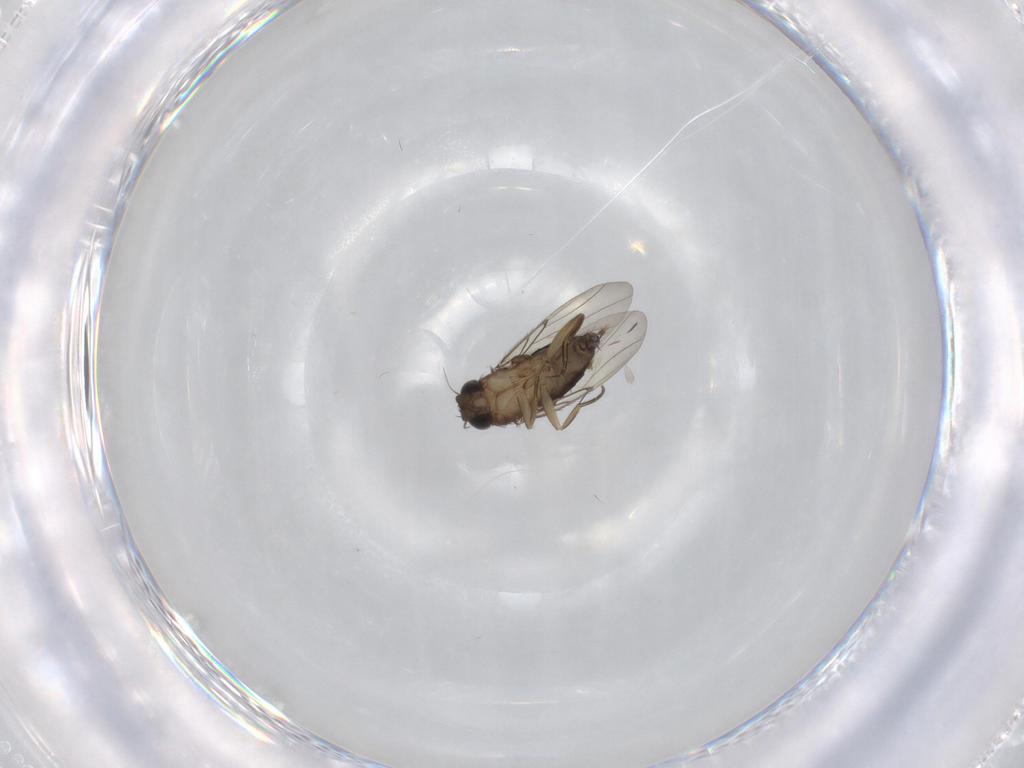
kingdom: Animalia
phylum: Arthropoda
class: Insecta
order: Diptera
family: Phoridae
